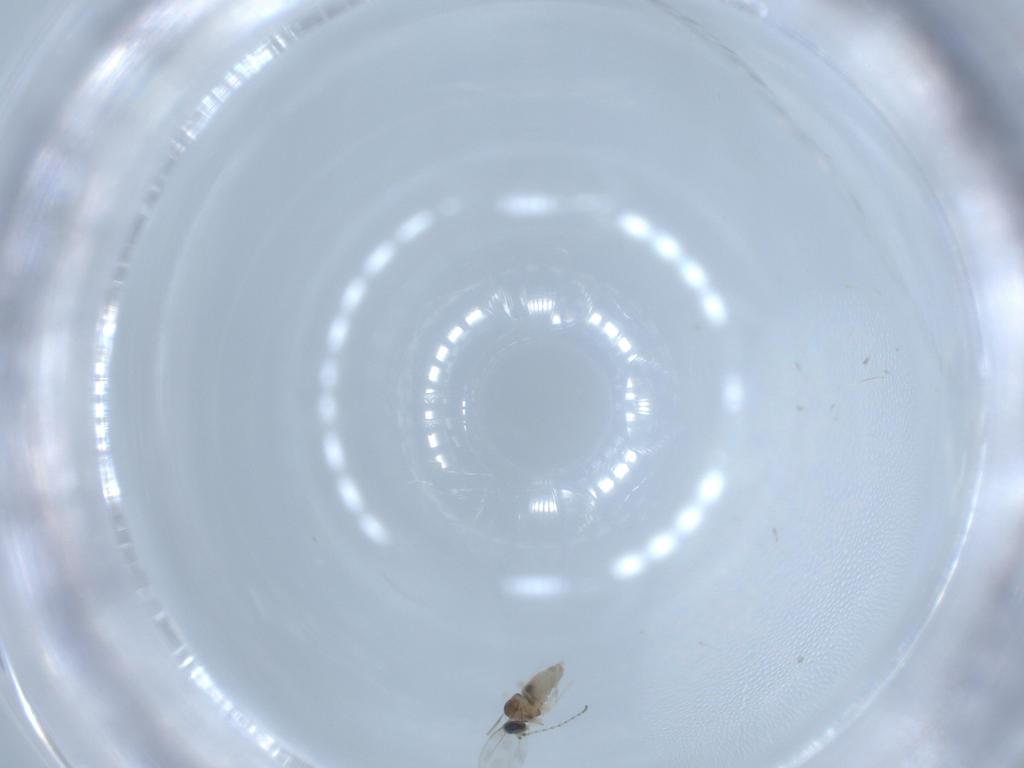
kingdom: Animalia
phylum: Arthropoda
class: Insecta
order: Diptera
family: Cecidomyiidae
